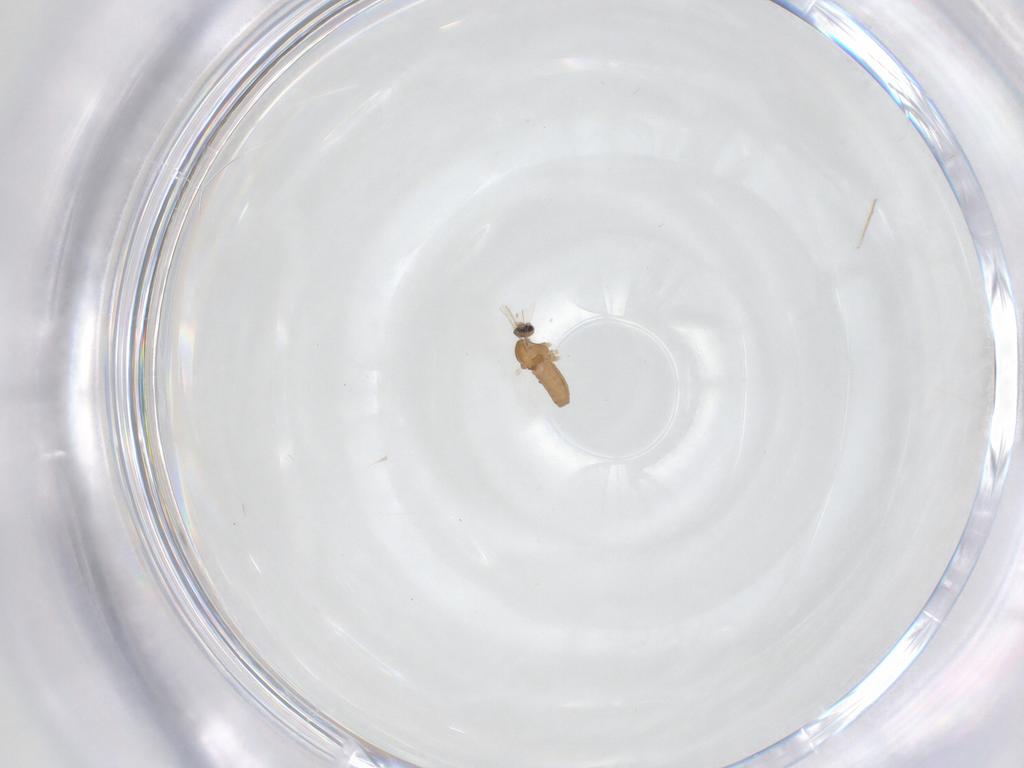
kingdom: Animalia
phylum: Arthropoda
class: Insecta
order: Diptera
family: Cecidomyiidae
